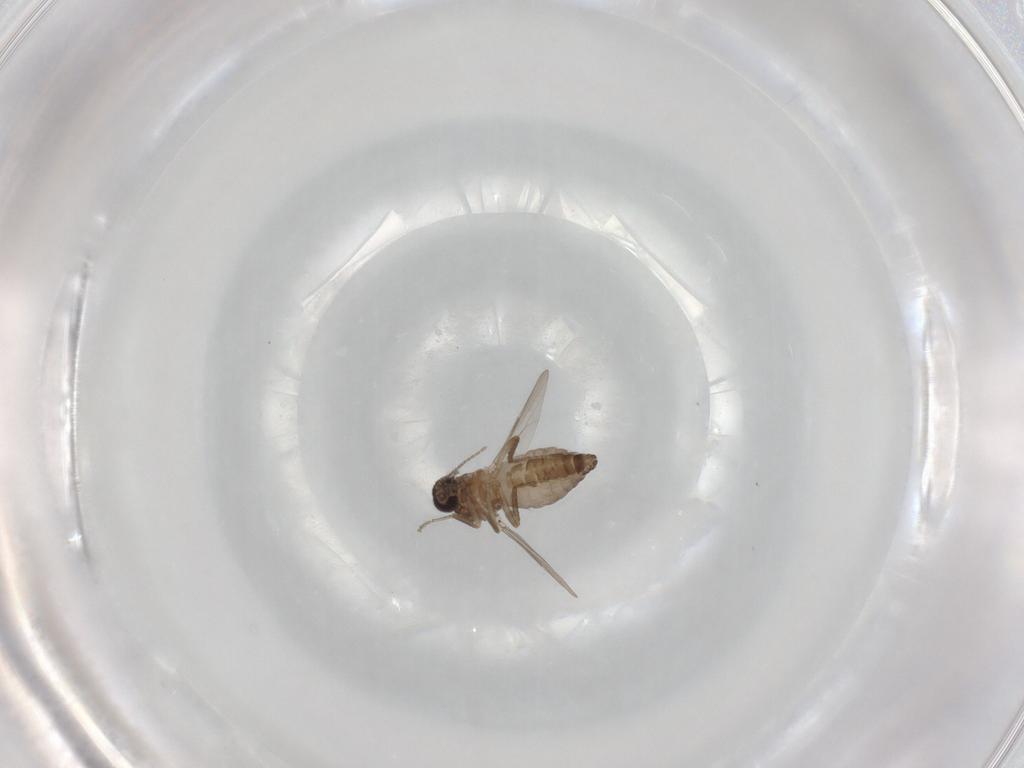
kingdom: Animalia
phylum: Arthropoda
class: Insecta
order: Diptera
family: Ceratopogonidae
